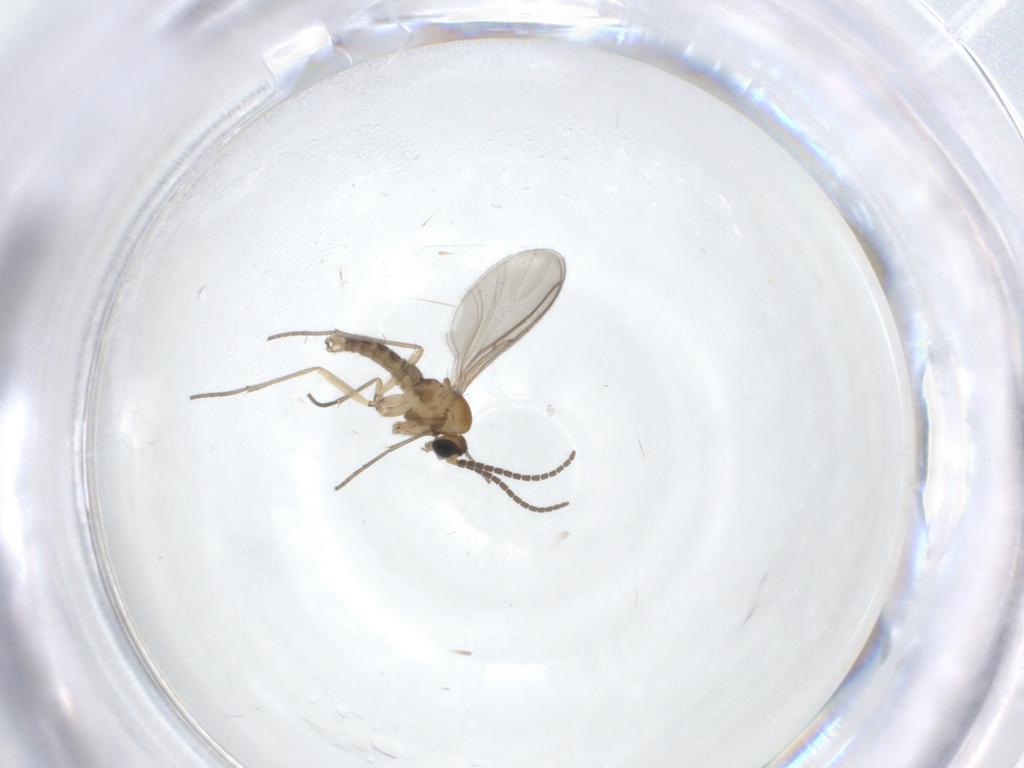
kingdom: Animalia
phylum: Arthropoda
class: Insecta
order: Diptera
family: Sciaridae
